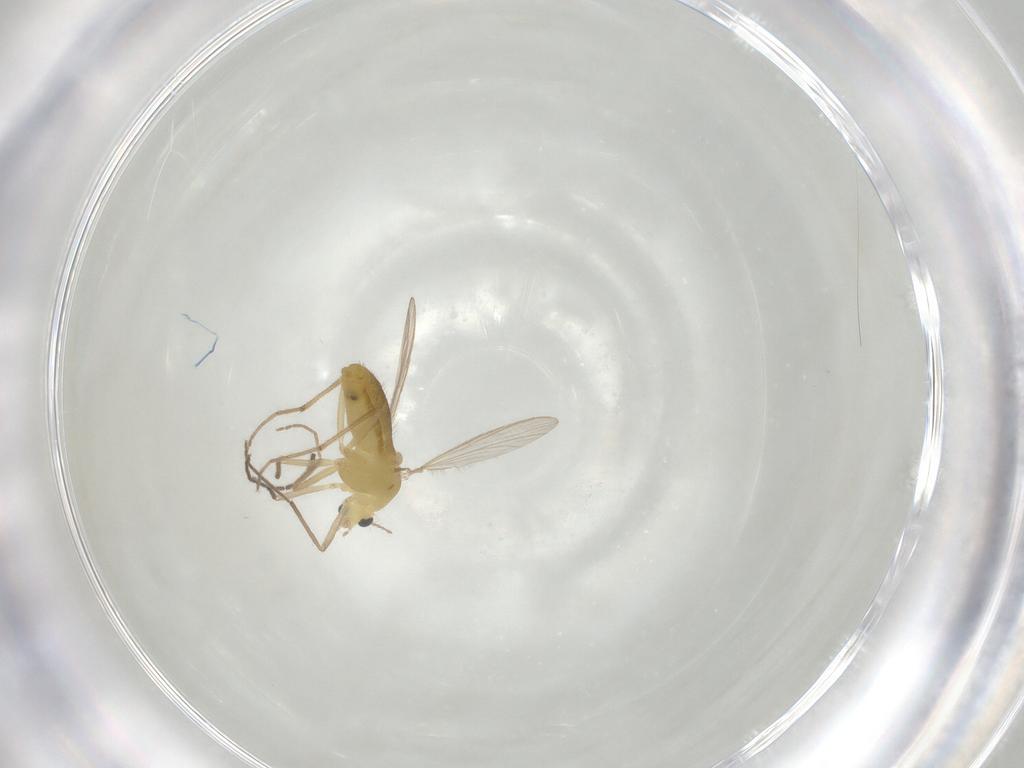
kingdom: Animalia
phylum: Arthropoda
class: Insecta
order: Diptera
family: Chironomidae
